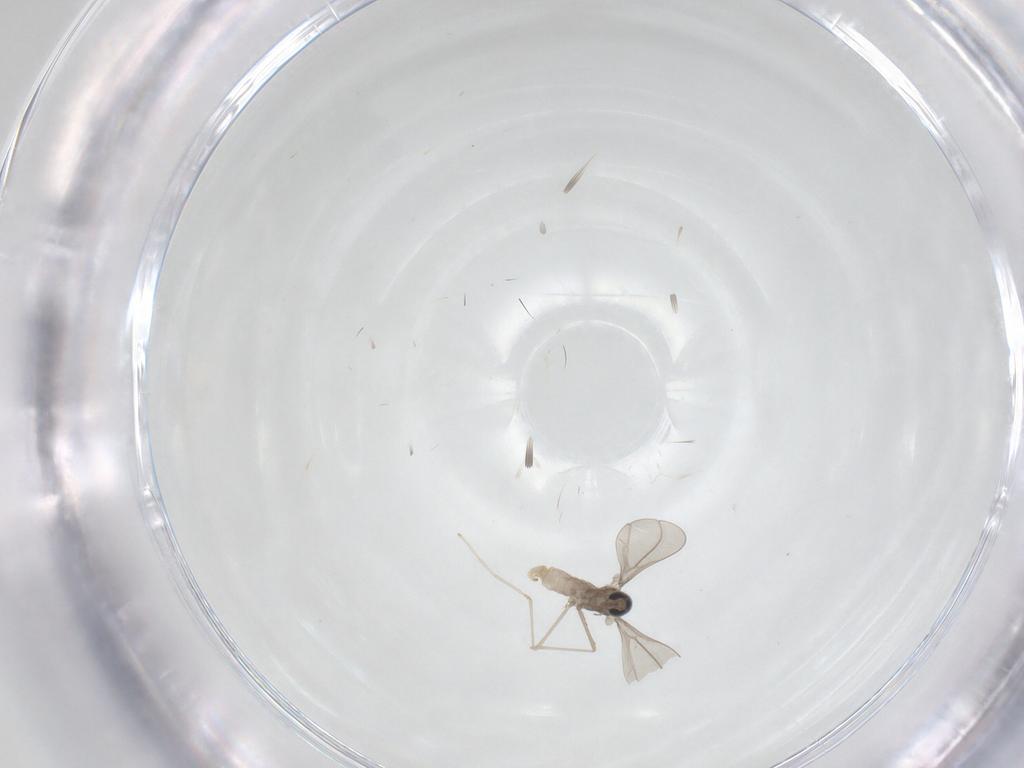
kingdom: Animalia
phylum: Arthropoda
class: Insecta
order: Diptera
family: Cecidomyiidae
